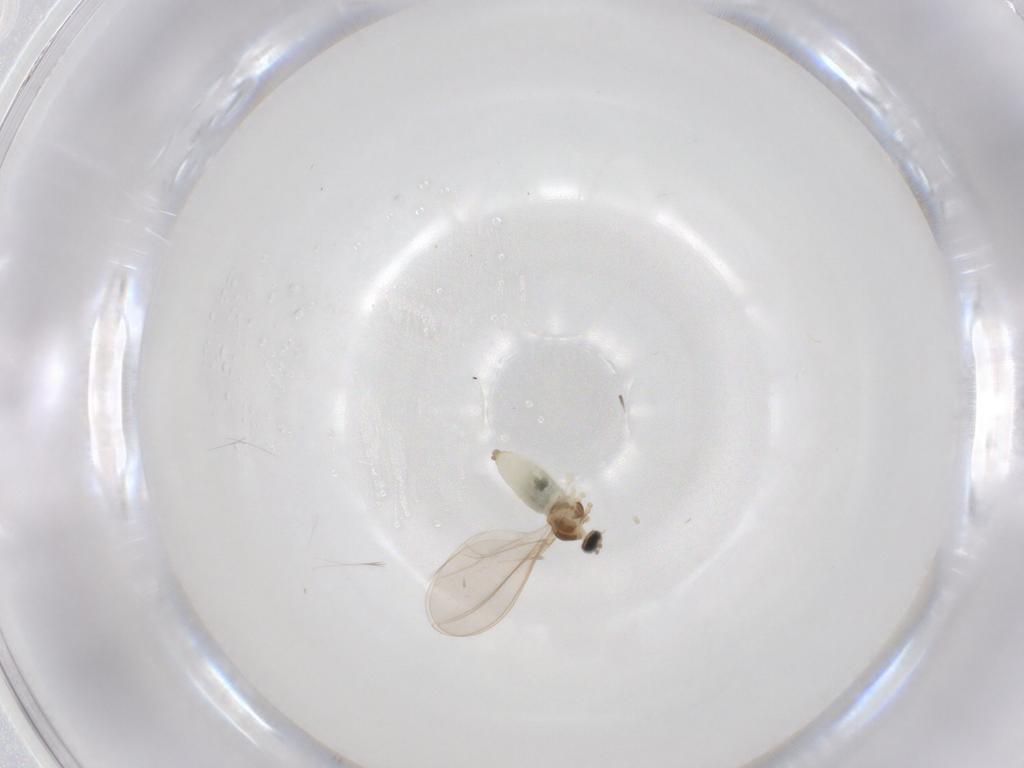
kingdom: Animalia
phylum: Arthropoda
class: Insecta
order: Diptera
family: Cecidomyiidae
